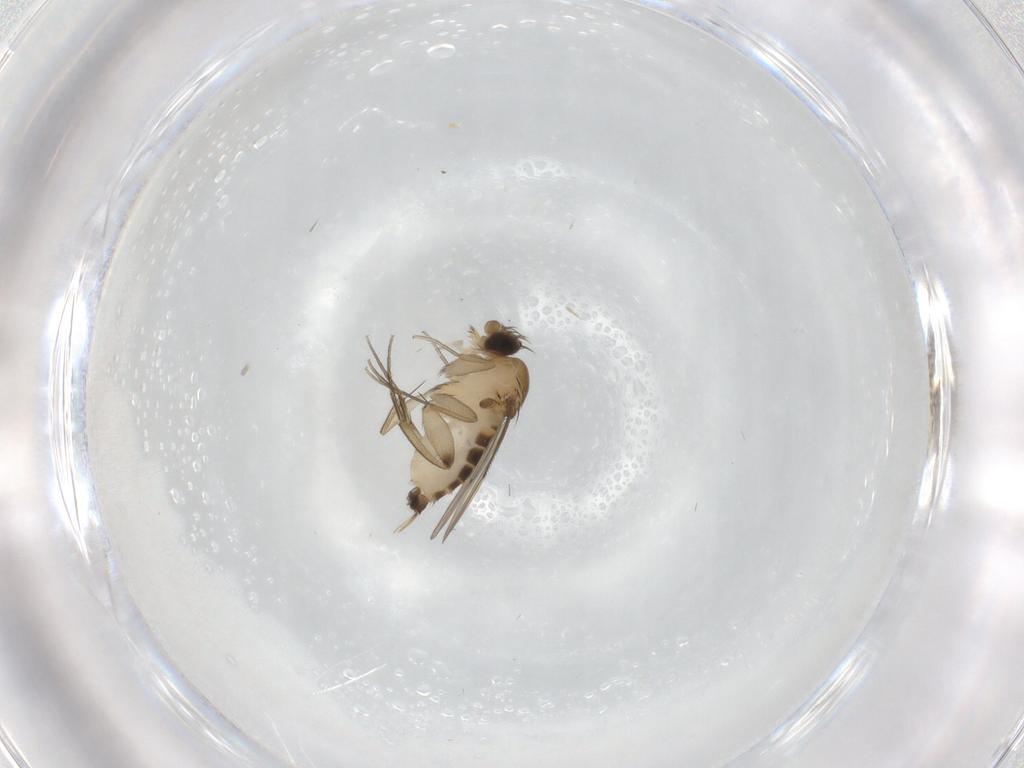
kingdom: Animalia
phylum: Arthropoda
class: Insecta
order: Diptera
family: Phoridae
